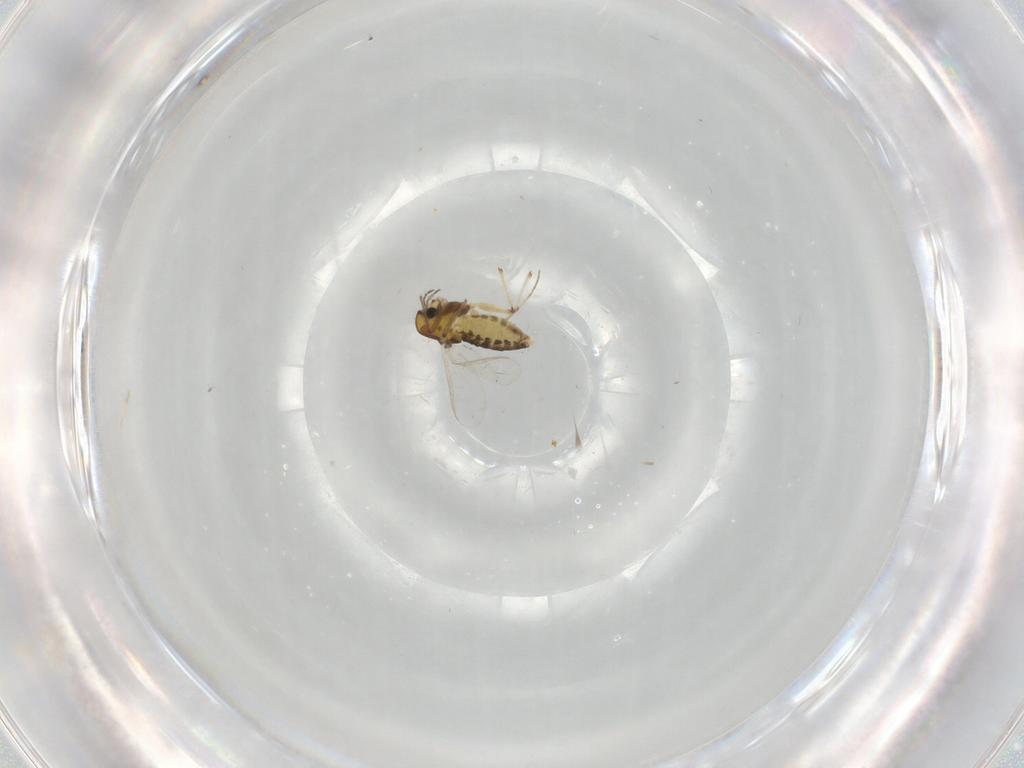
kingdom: Animalia
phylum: Arthropoda
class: Insecta
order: Diptera
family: Chironomidae
